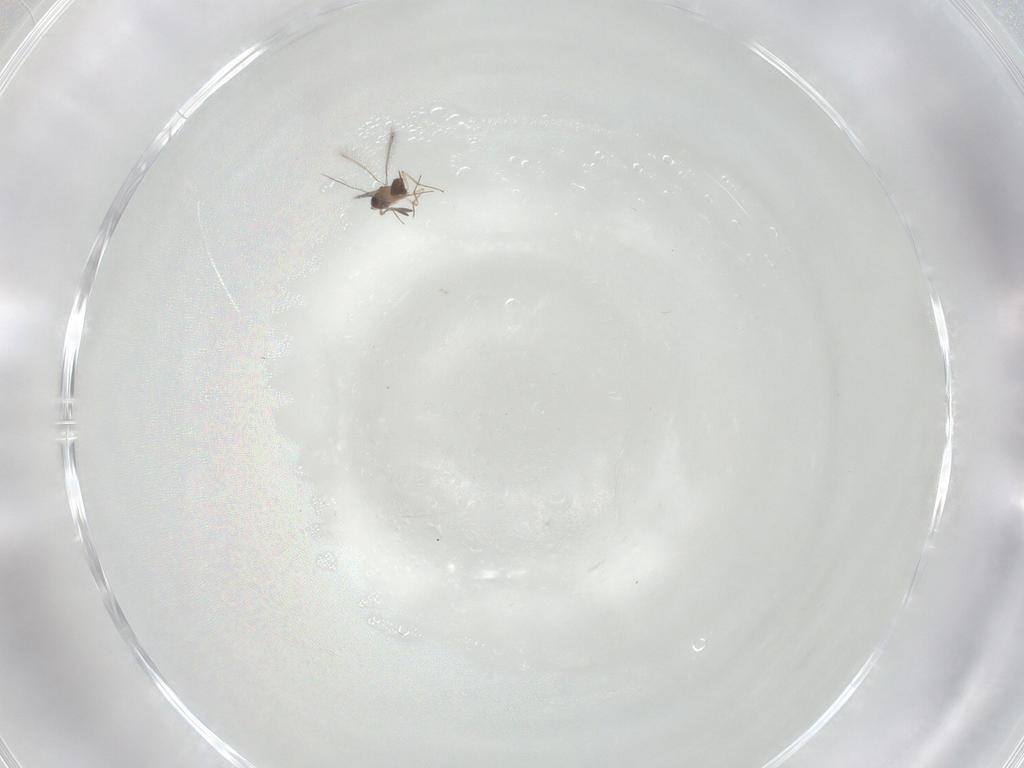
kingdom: Animalia
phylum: Arthropoda
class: Insecta
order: Hymenoptera
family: Mymaridae
